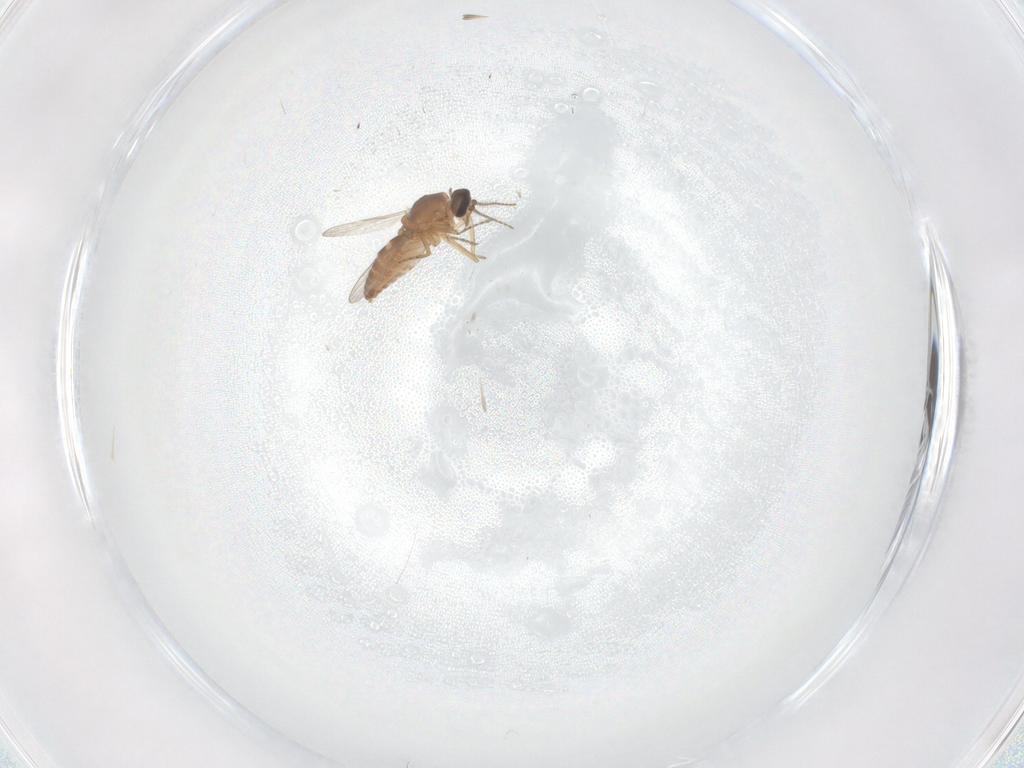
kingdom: Animalia
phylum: Arthropoda
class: Insecta
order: Diptera
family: Ceratopogonidae
